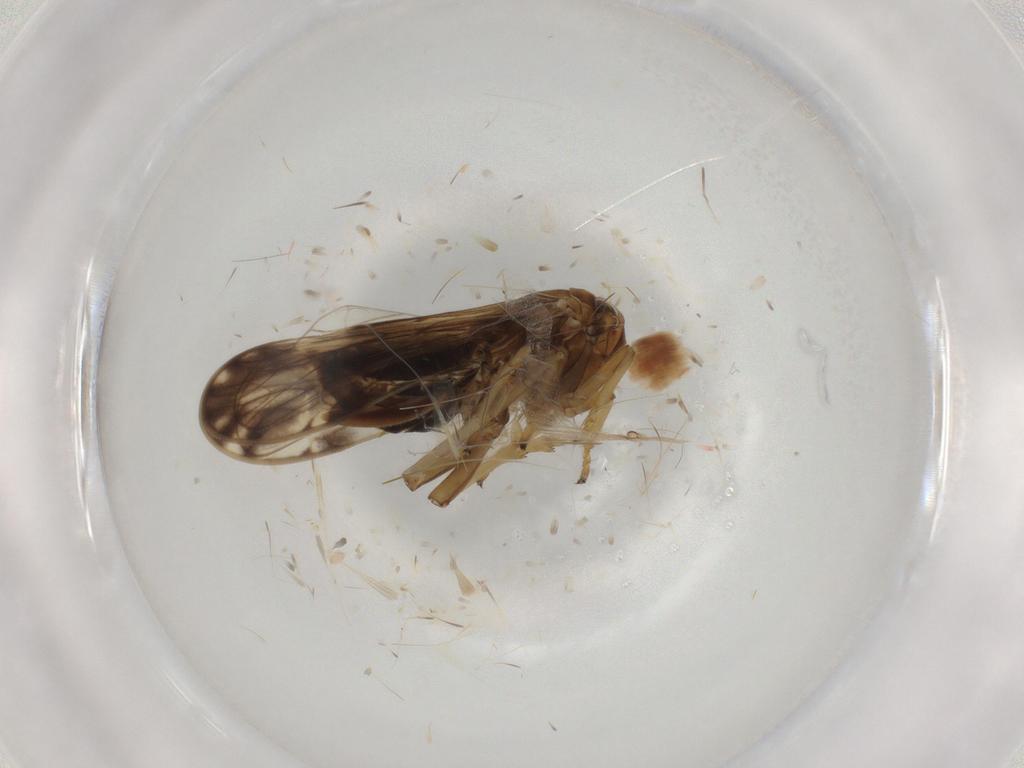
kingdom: Animalia
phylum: Arthropoda
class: Insecta
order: Hemiptera
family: Delphacidae
